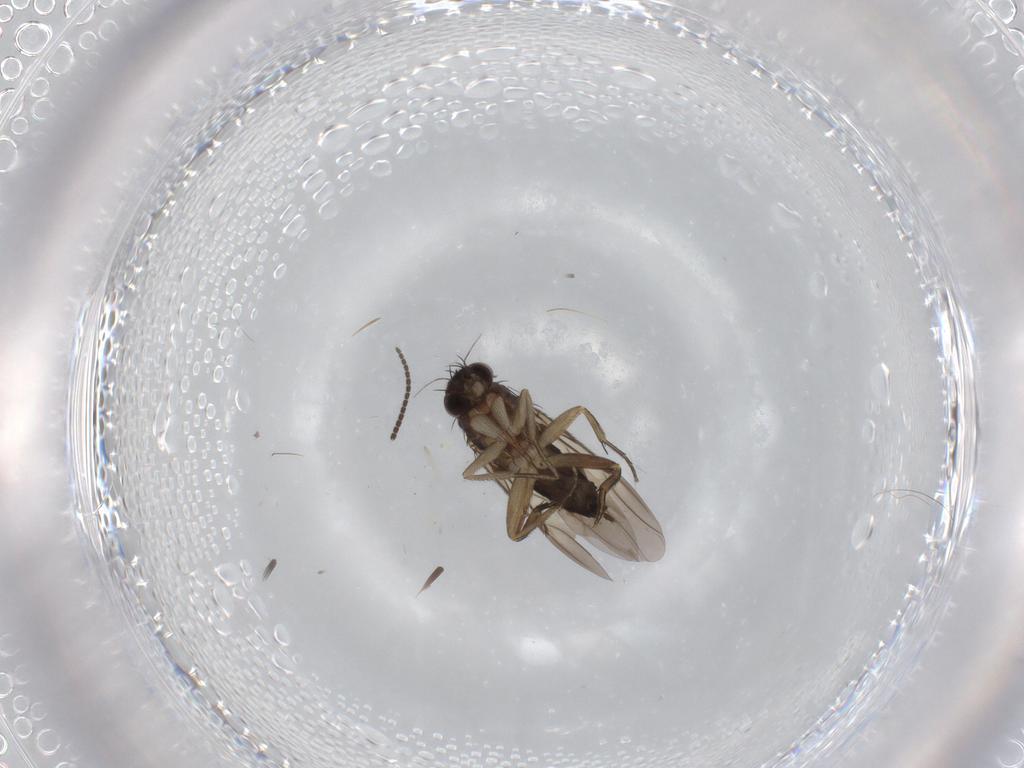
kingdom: Animalia
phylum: Arthropoda
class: Insecta
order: Diptera
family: Phoridae
